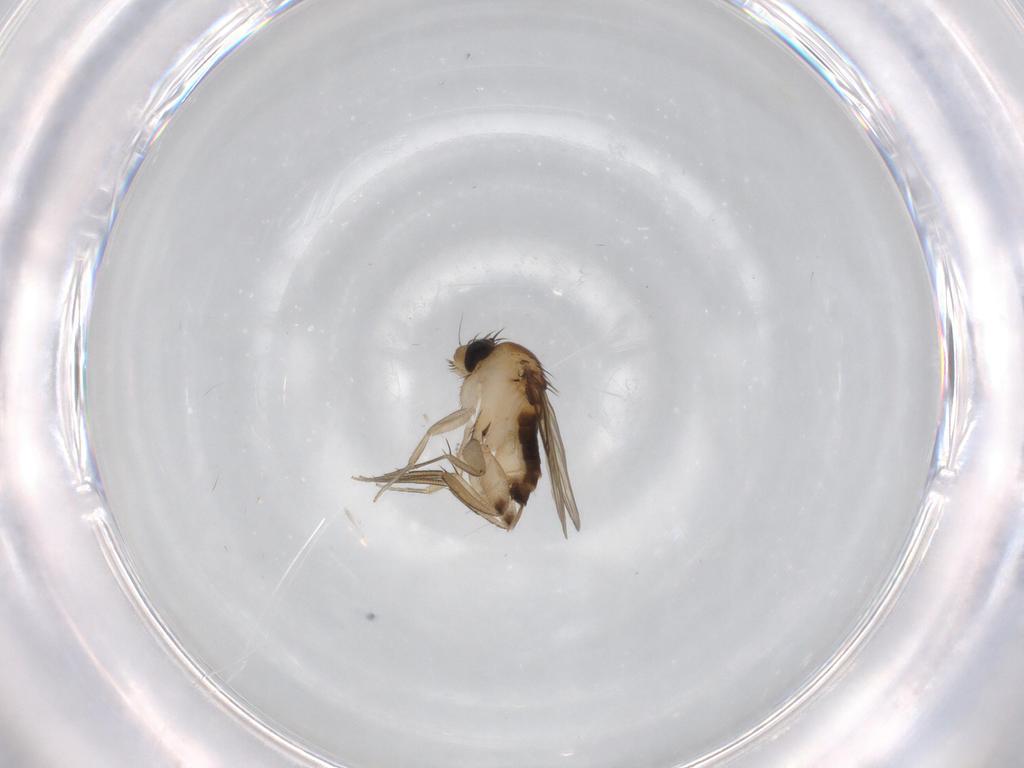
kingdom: Animalia
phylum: Arthropoda
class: Insecta
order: Diptera
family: Phoridae
